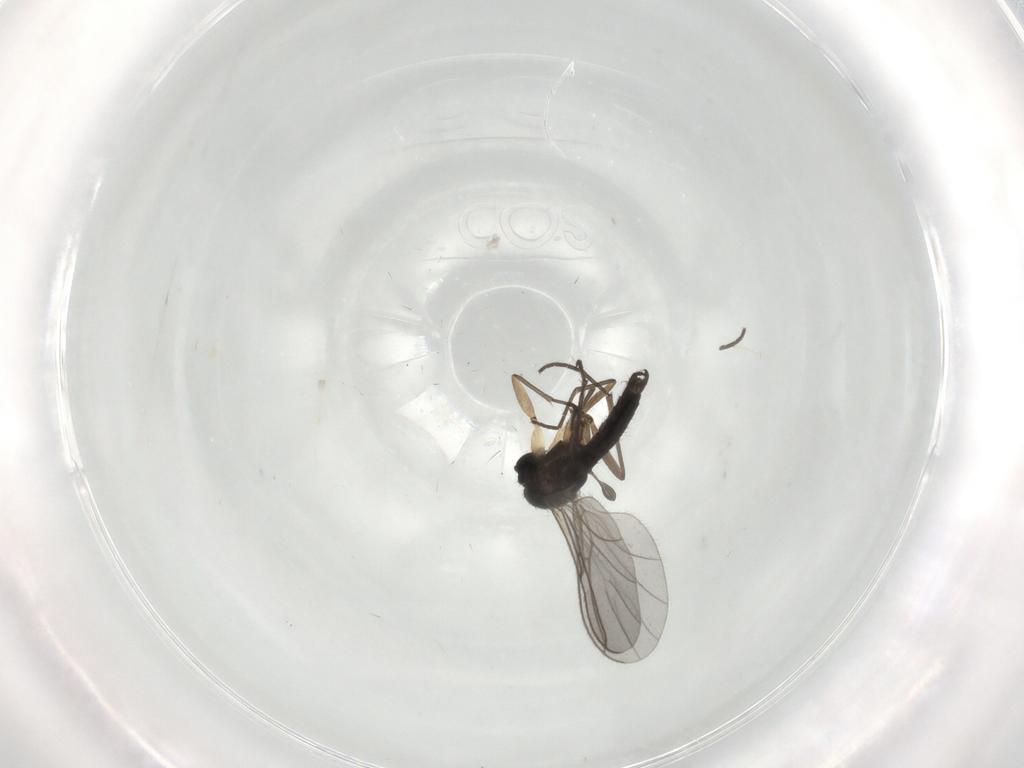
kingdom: Animalia
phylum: Arthropoda
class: Insecta
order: Diptera
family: Sciaridae
